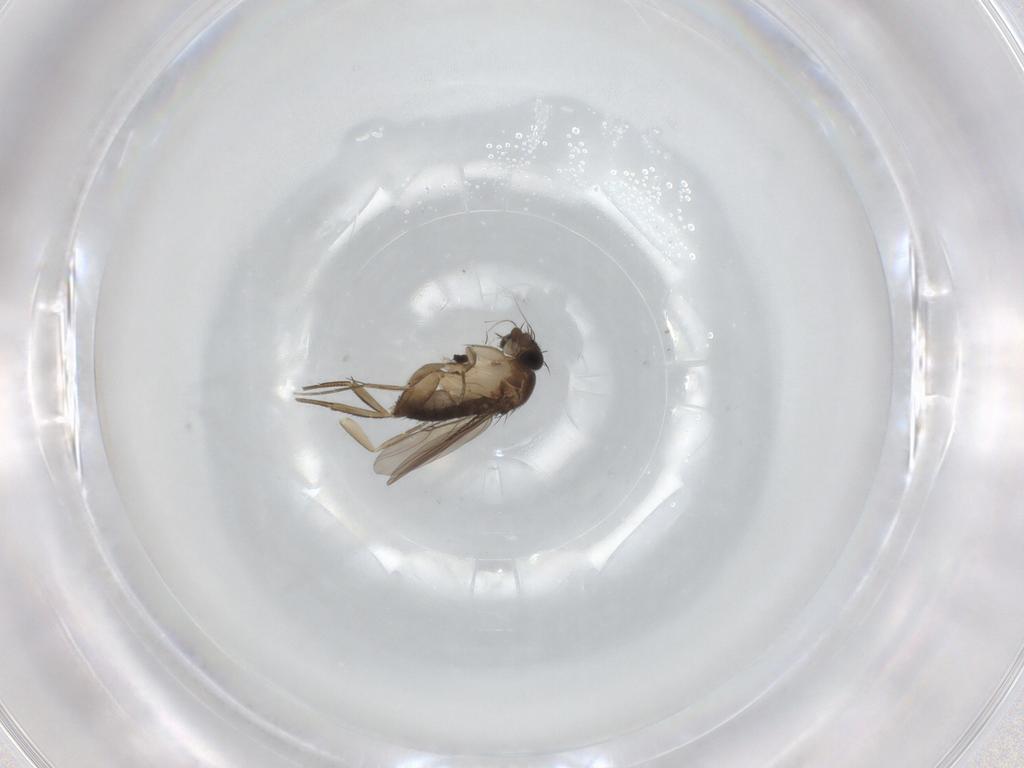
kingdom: Animalia
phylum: Arthropoda
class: Insecta
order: Diptera
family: Phoridae
